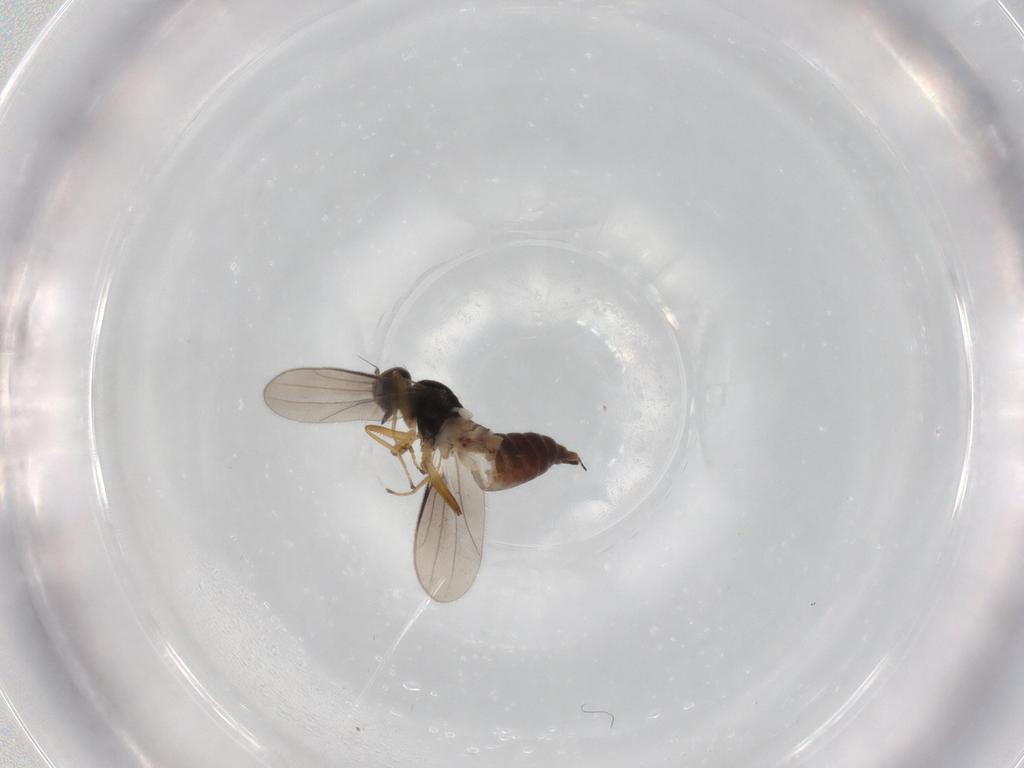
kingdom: Animalia
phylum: Arthropoda
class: Insecta
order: Diptera
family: Hybotidae
